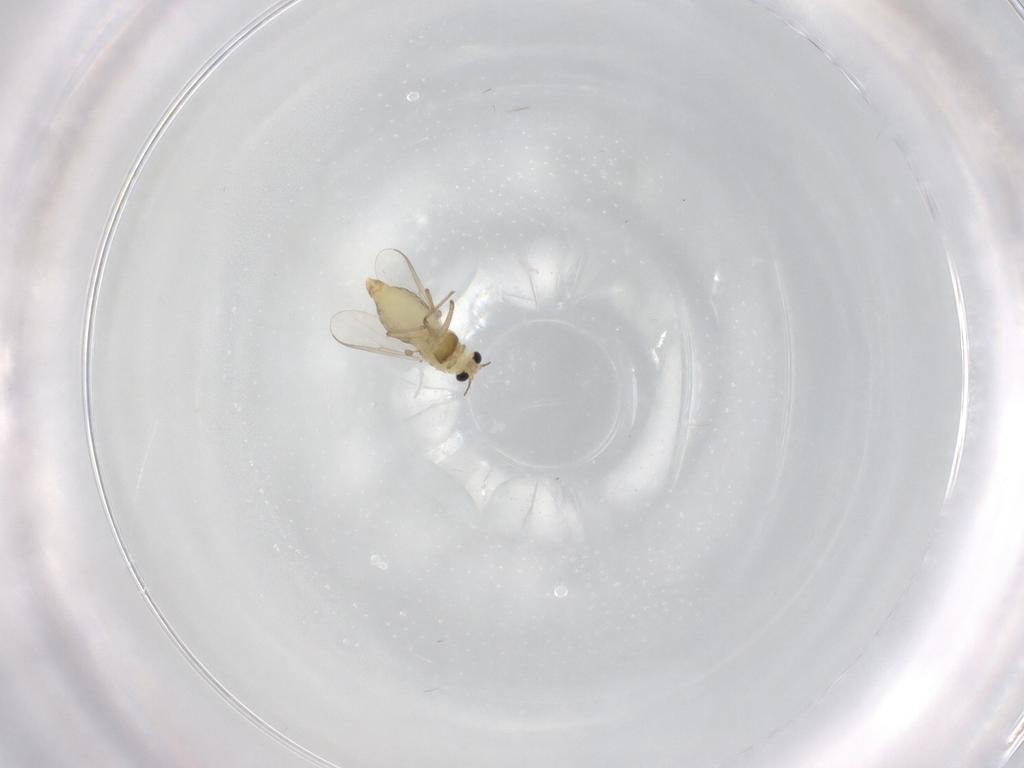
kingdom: Animalia
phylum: Arthropoda
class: Insecta
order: Diptera
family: Chironomidae
